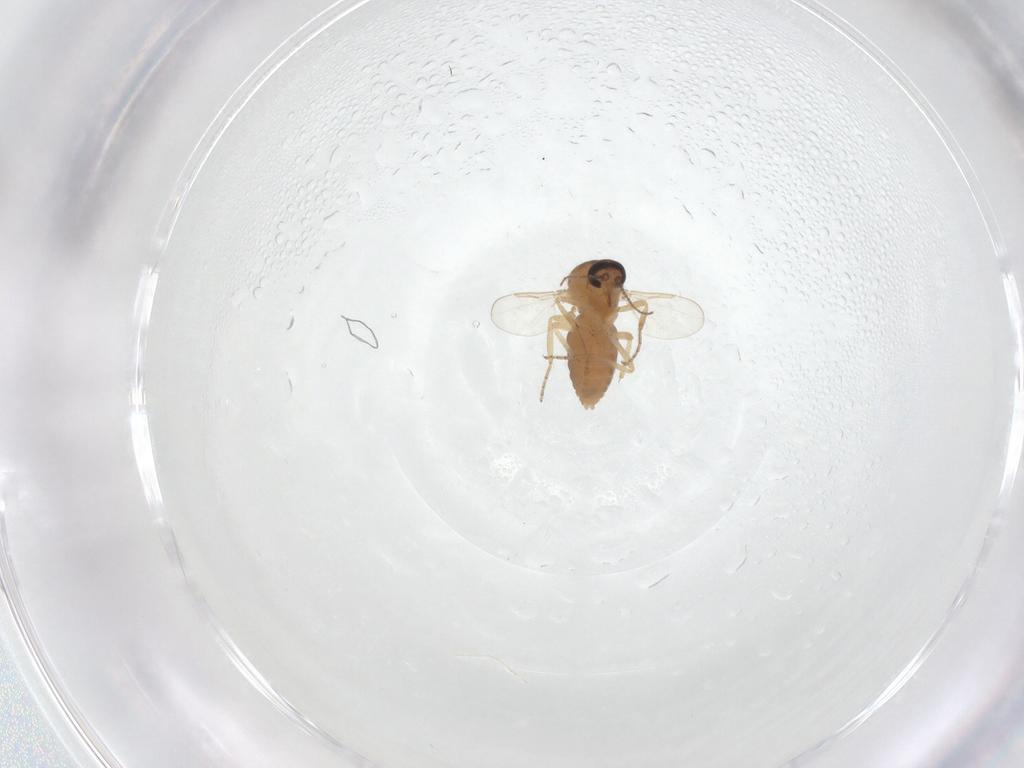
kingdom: Animalia
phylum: Arthropoda
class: Insecta
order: Diptera
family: Ceratopogonidae
